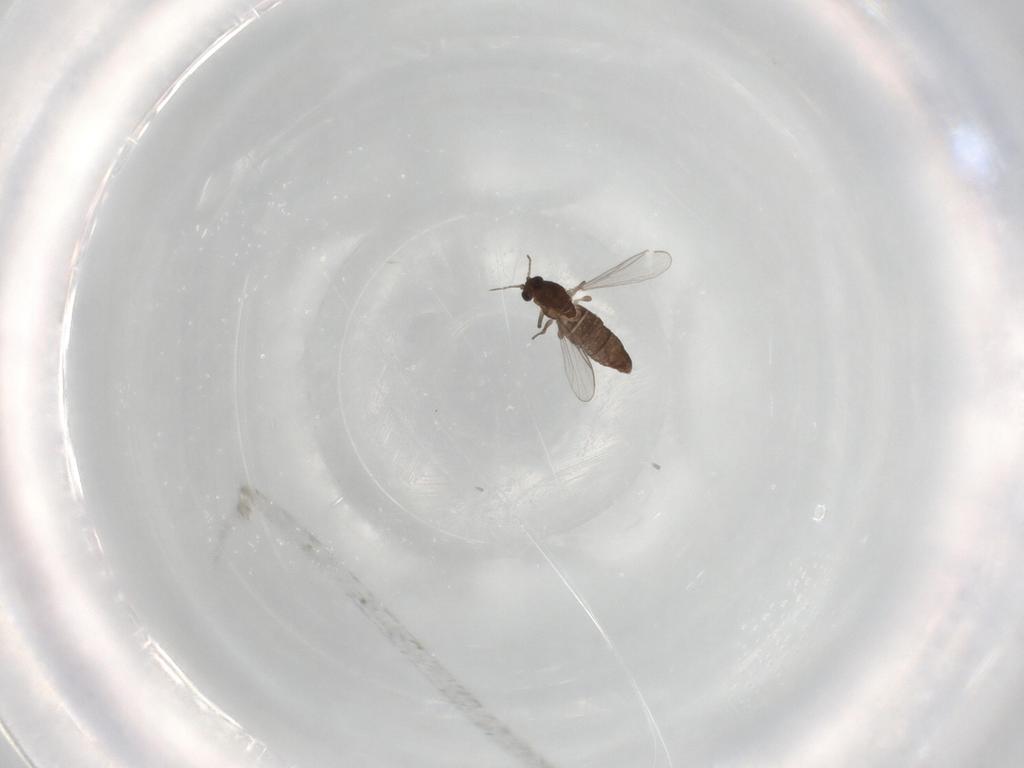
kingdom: Animalia
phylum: Arthropoda
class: Insecta
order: Diptera
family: Chironomidae
